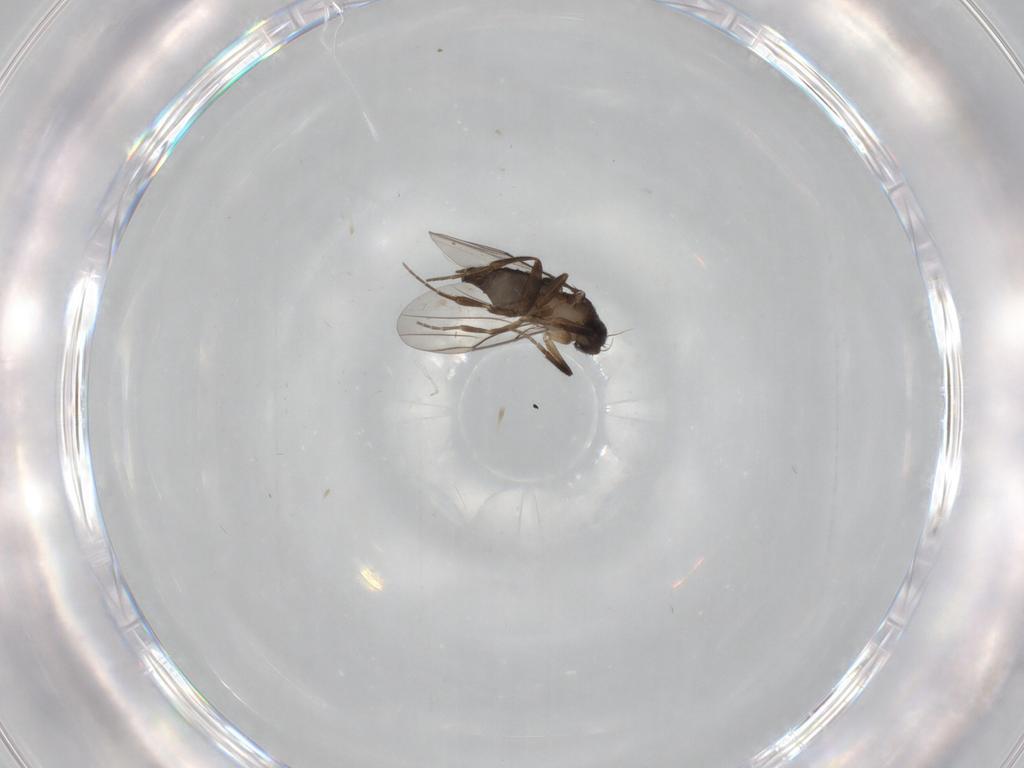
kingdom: Animalia
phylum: Arthropoda
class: Insecta
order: Diptera
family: Phoridae
